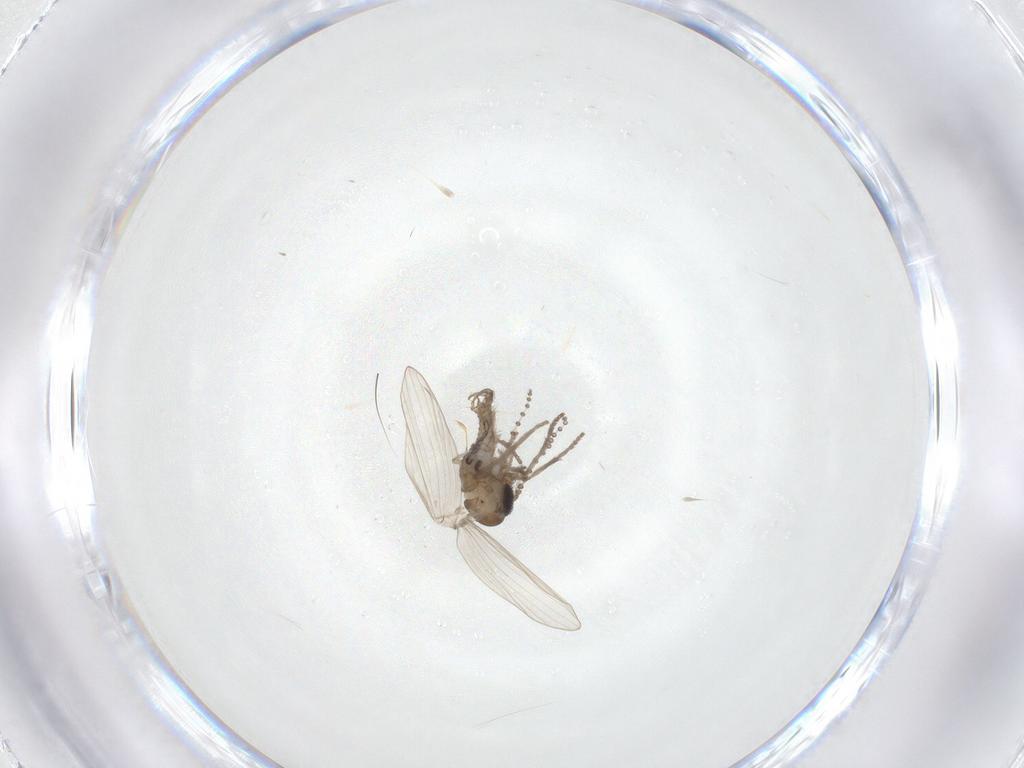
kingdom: Animalia
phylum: Arthropoda
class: Insecta
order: Diptera
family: Psychodidae
